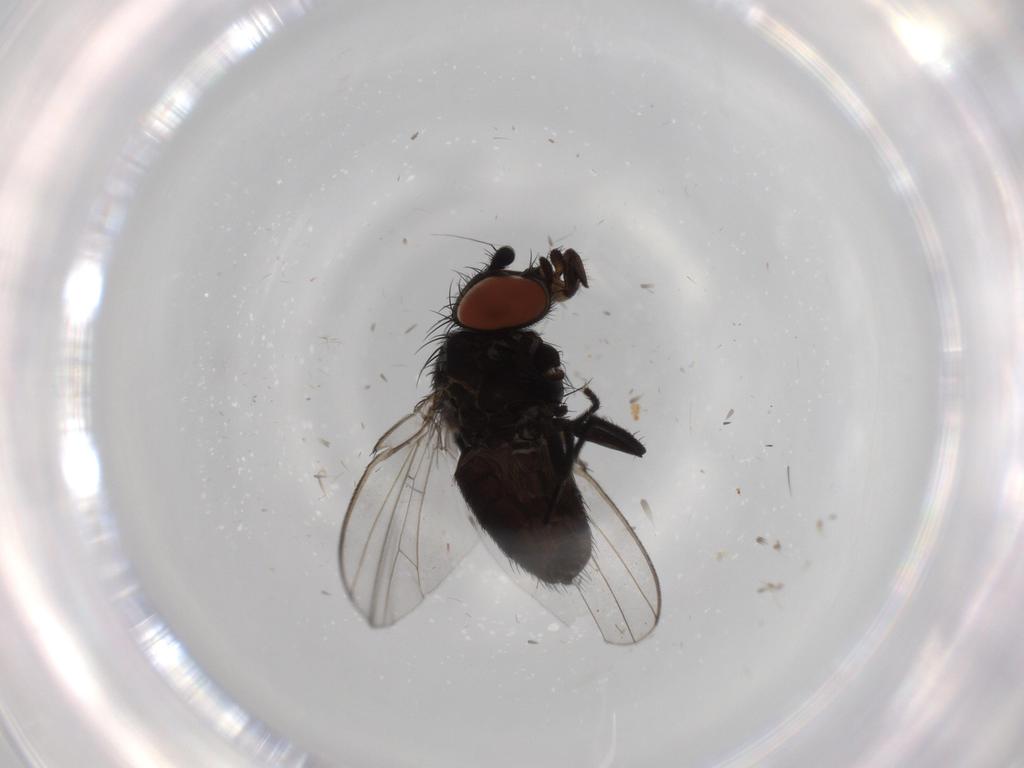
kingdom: Animalia
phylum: Arthropoda
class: Insecta
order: Diptera
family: Milichiidae
